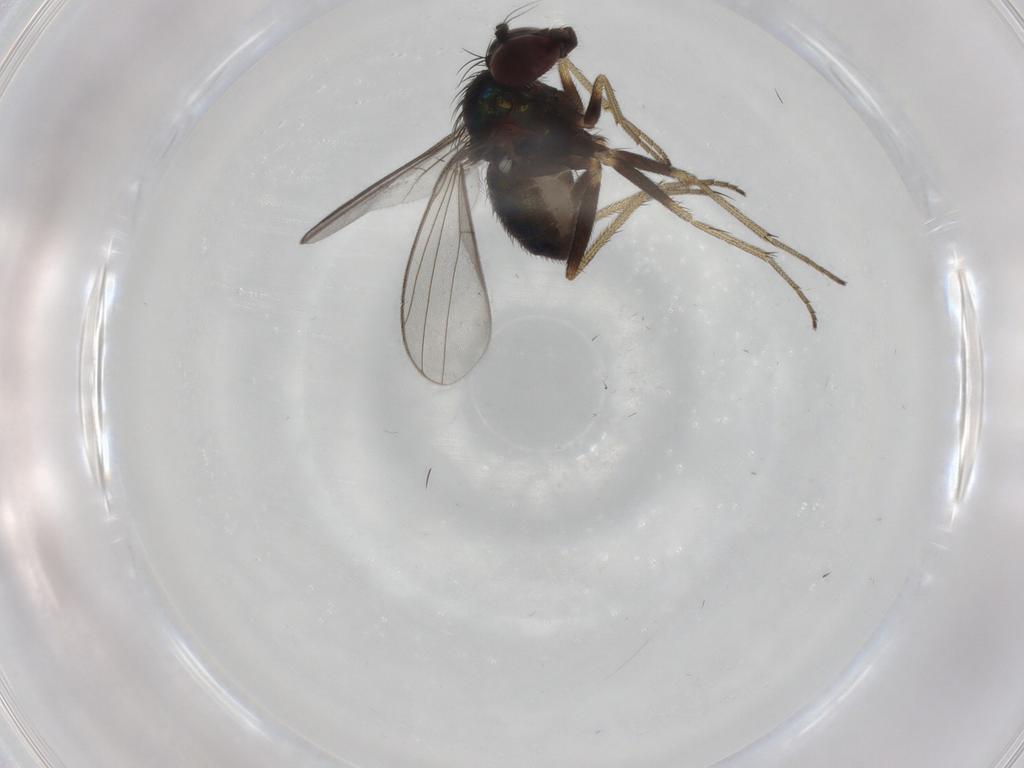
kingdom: Animalia
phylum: Arthropoda
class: Insecta
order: Diptera
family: Dolichopodidae
